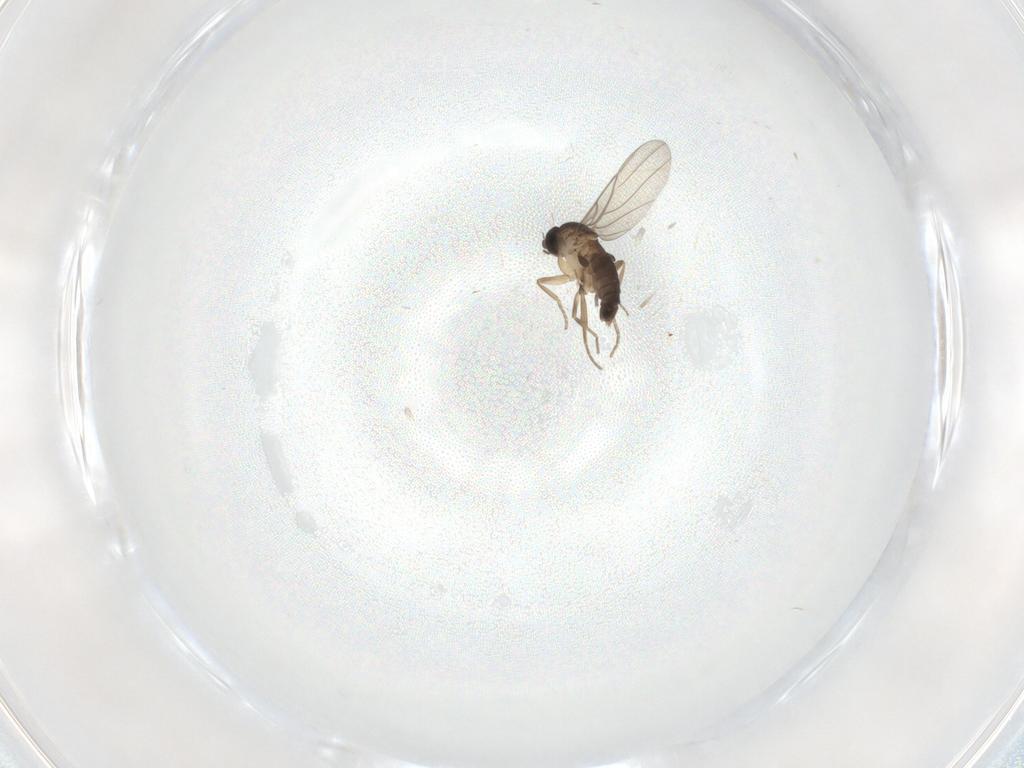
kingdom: Animalia
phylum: Arthropoda
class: Insecta
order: Diptera
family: Phoridae
